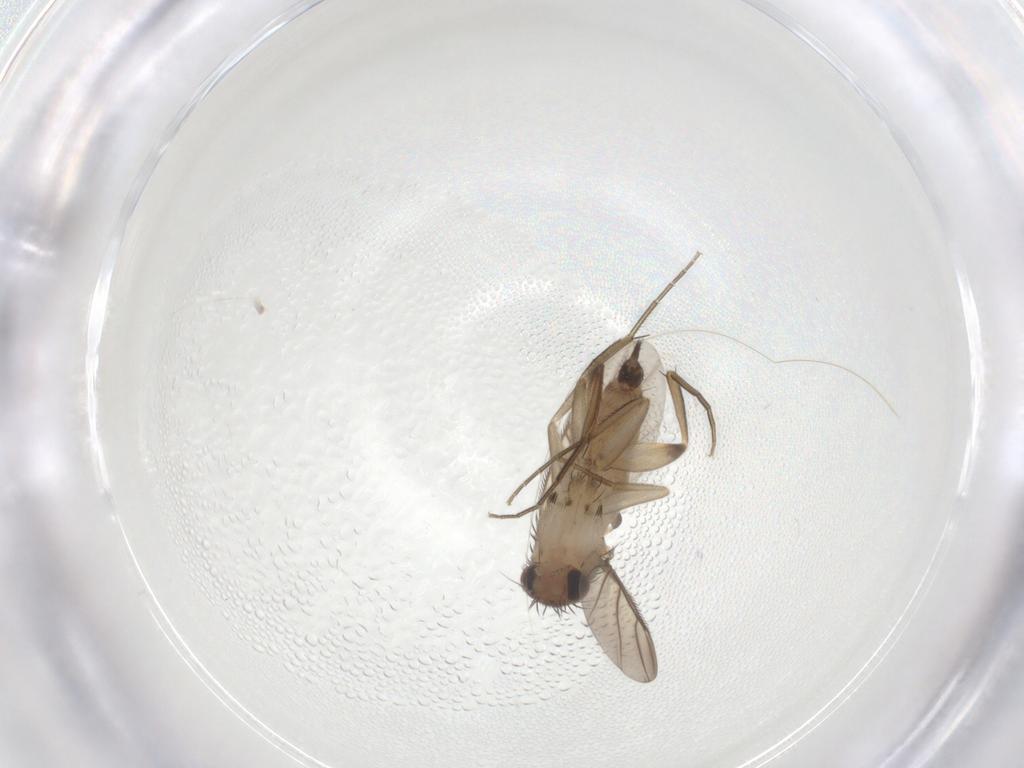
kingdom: Animalia
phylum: Arthropoda
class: Insecta
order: Diptera
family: Phoridae
